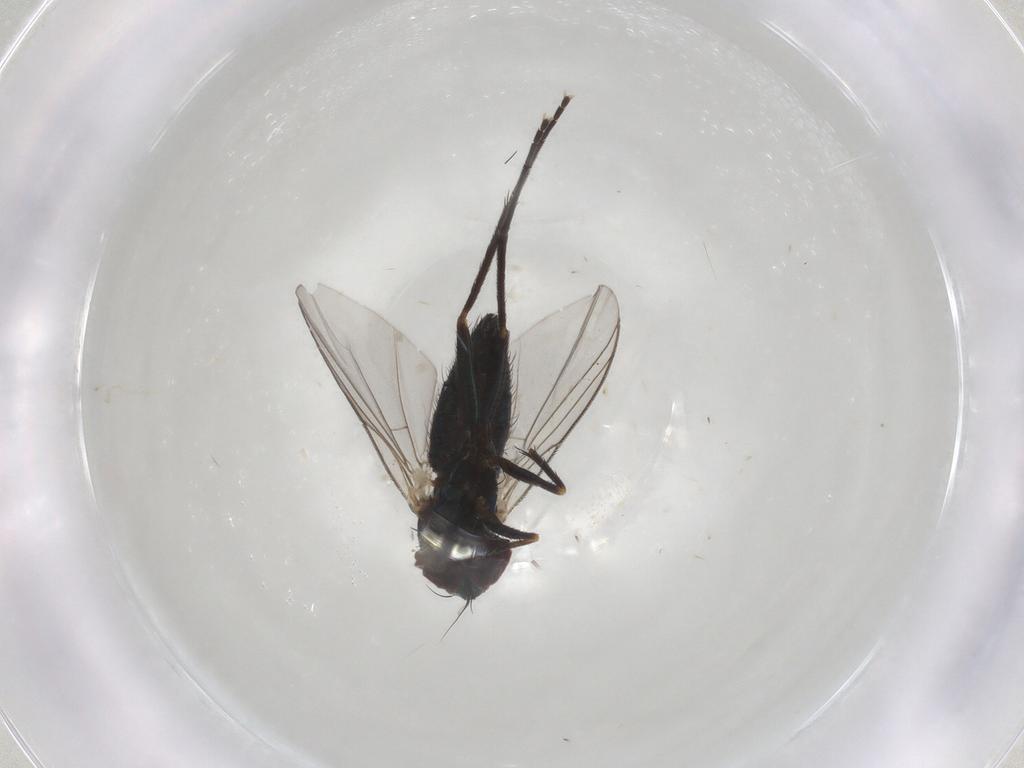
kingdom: Animalia
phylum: Arthropoda
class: Insecta
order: Diptera
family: Dolichopodidae
